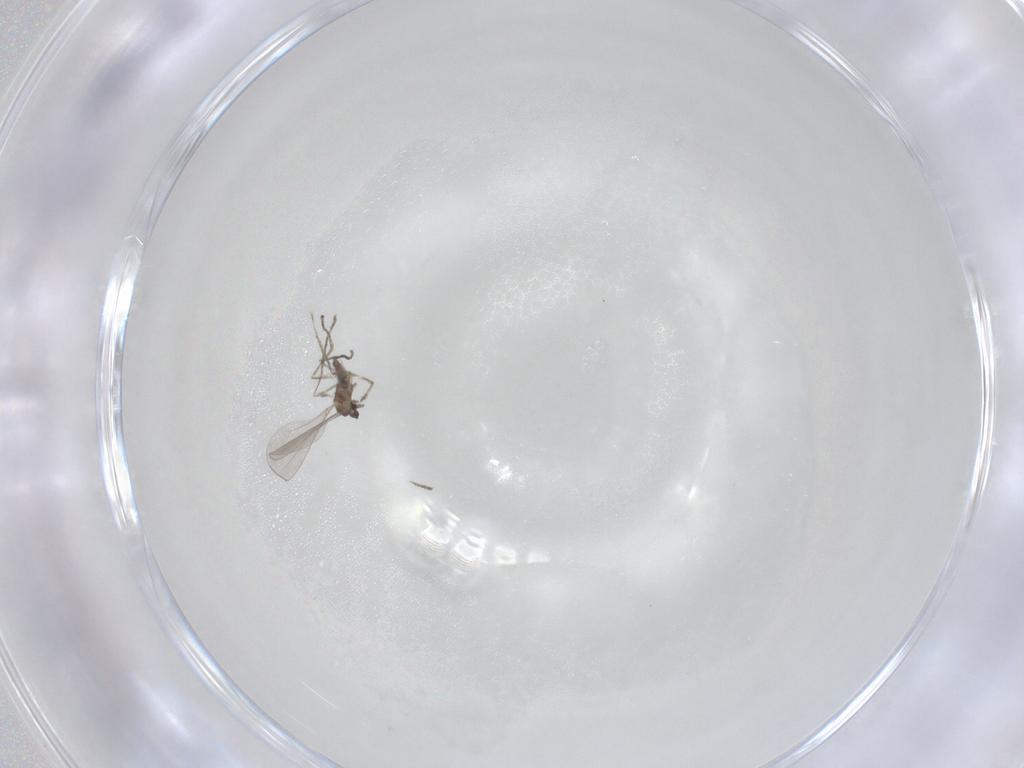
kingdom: Animalia
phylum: Arthropoda
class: Insecta
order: Diptera
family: Cecidomyiidae
